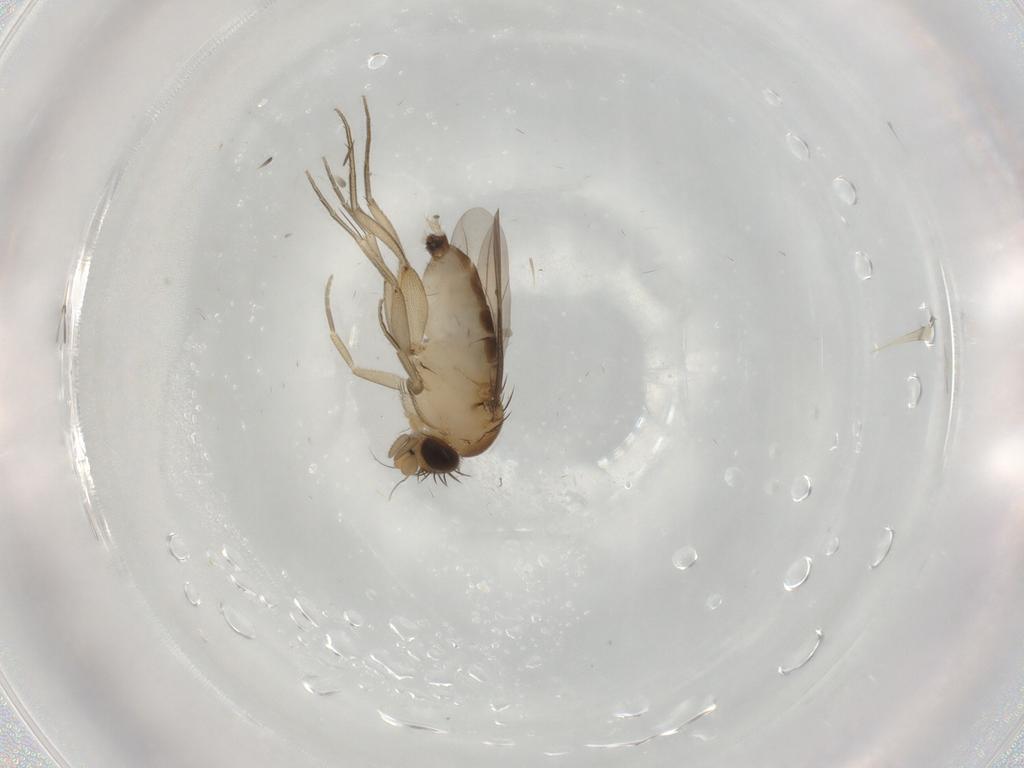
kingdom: Animalia
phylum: Arthropoda
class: Insecta
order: Diptera
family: Phoridae
